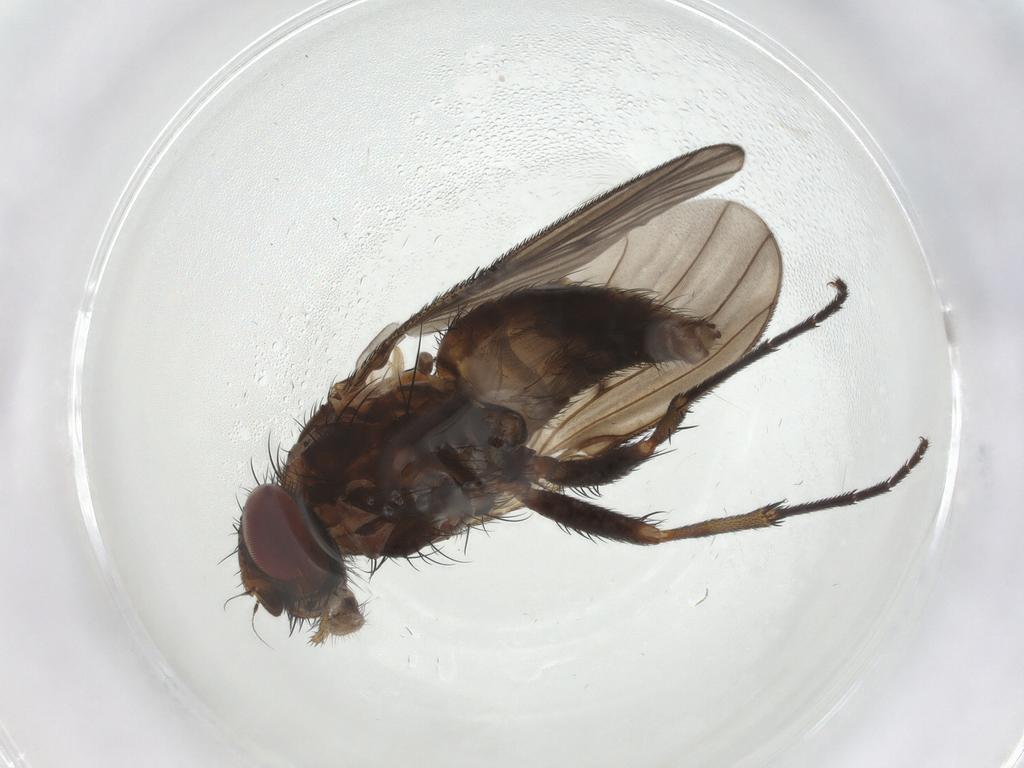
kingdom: Animalia
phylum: Arthropoda
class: Insecta
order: Diptera
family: Muscidae
